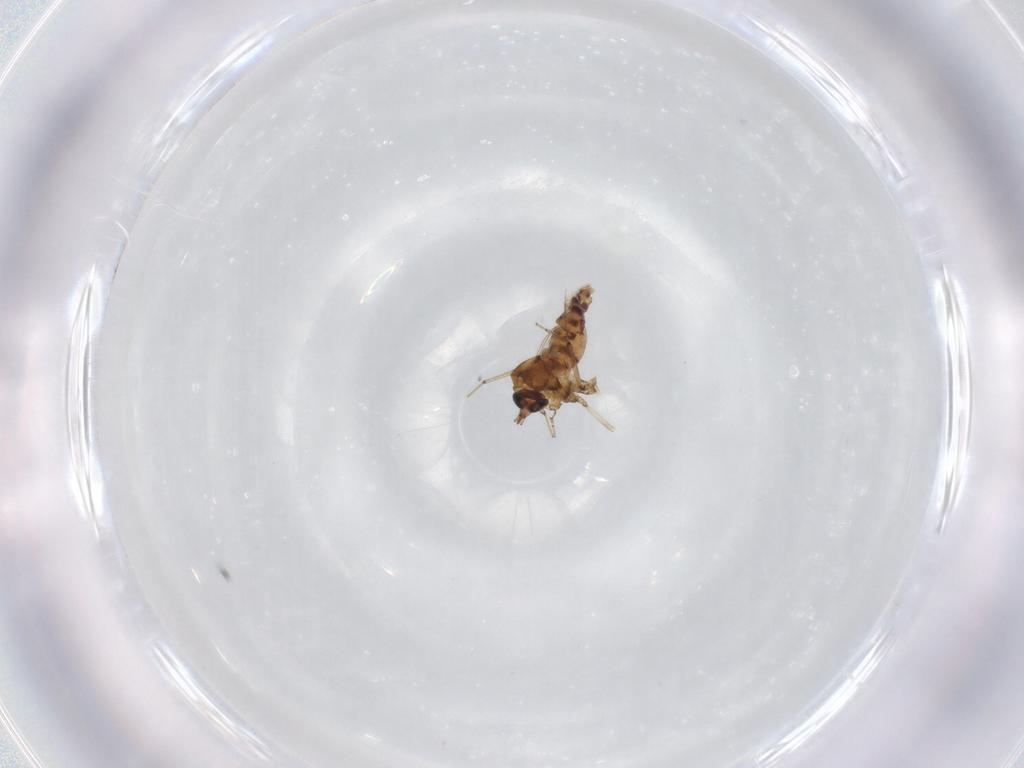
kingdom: Animalia
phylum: Arthropoda
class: Insecta
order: Diptera
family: Ceratopogonidae
